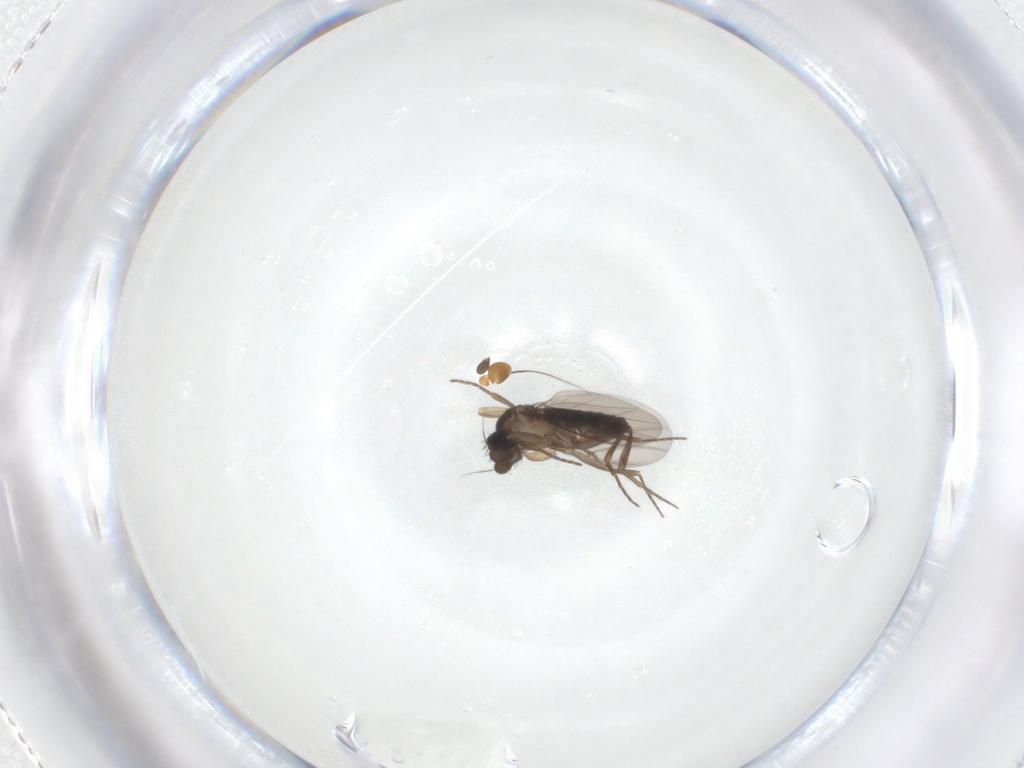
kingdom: Animalia
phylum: Arthropoda
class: Insecta
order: Diptera
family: Phoridae
